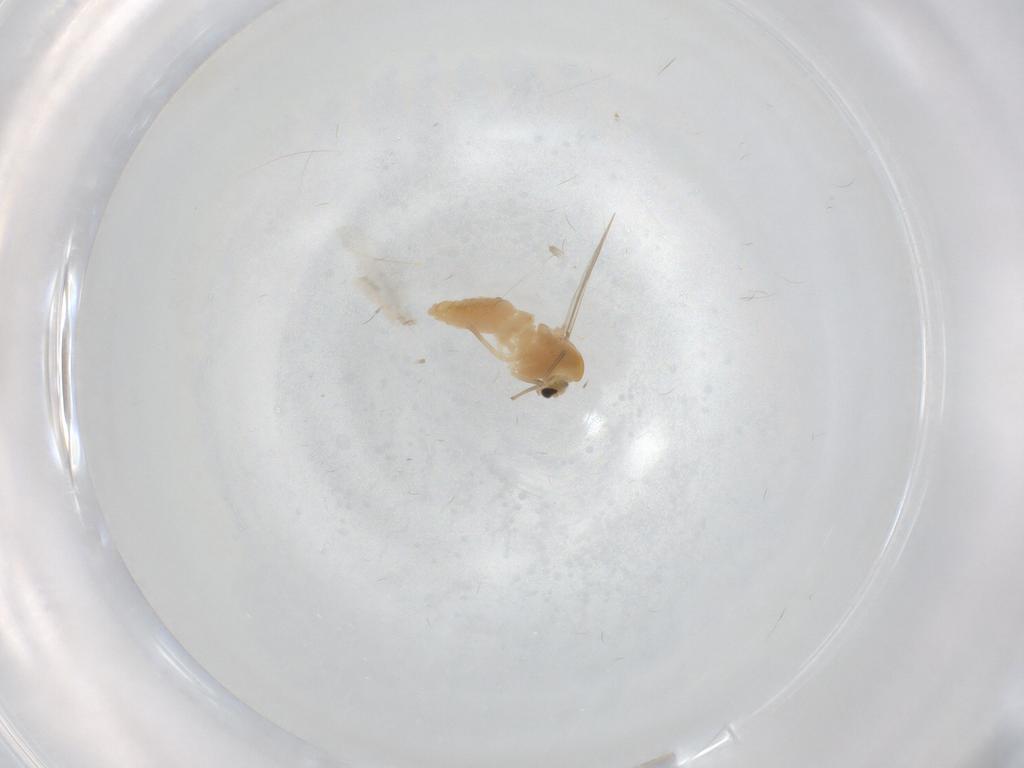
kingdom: Animalia
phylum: Arthropoda
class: Insecta
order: Diptera
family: Chironomidae
